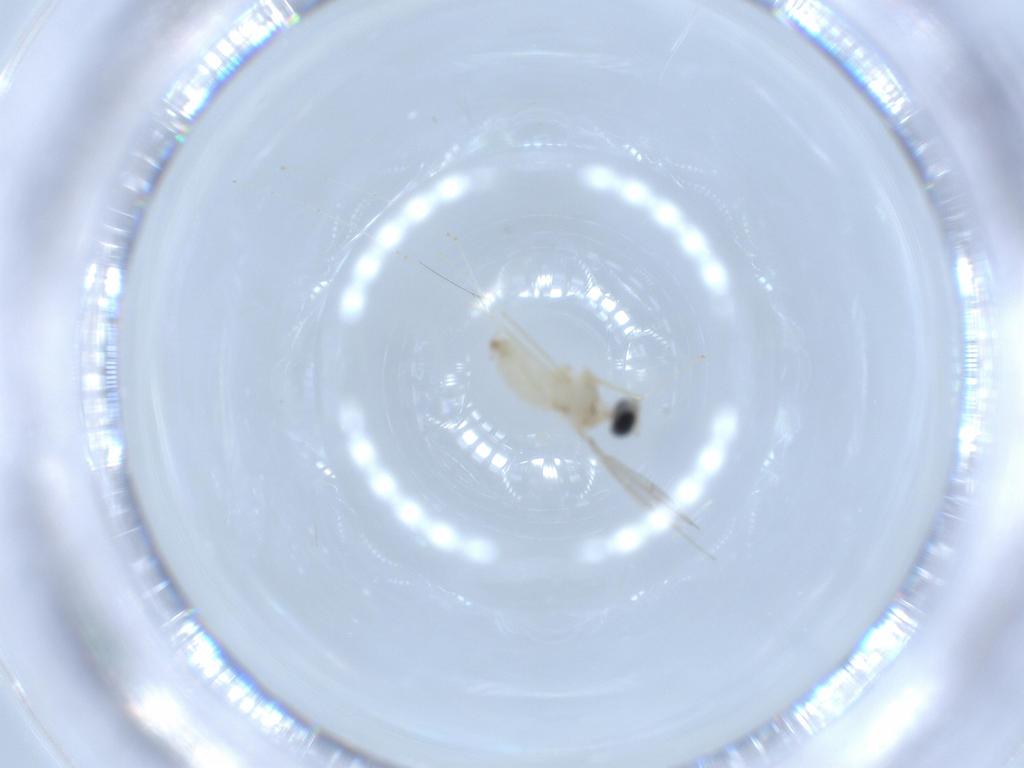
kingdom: Animalia
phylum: Arthropoda
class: Insecta
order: Diptera
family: Cecidomyiidae
